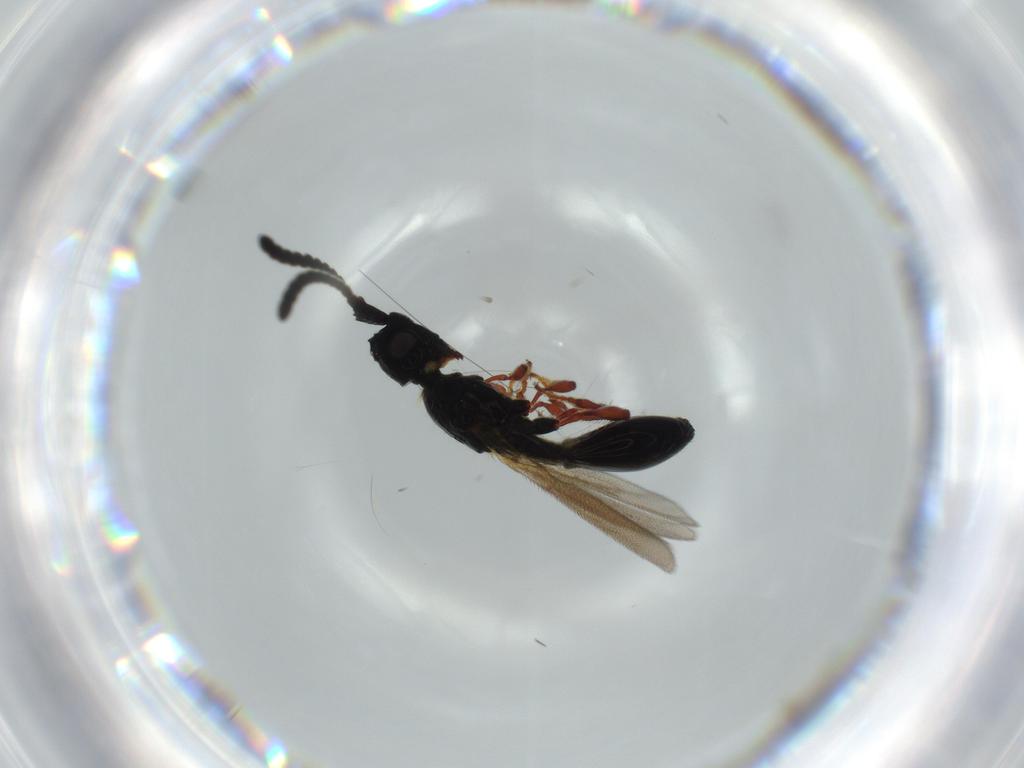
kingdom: Animalia
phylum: Arthropoda
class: Insecta
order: Hymenoptera
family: Diapriidae
